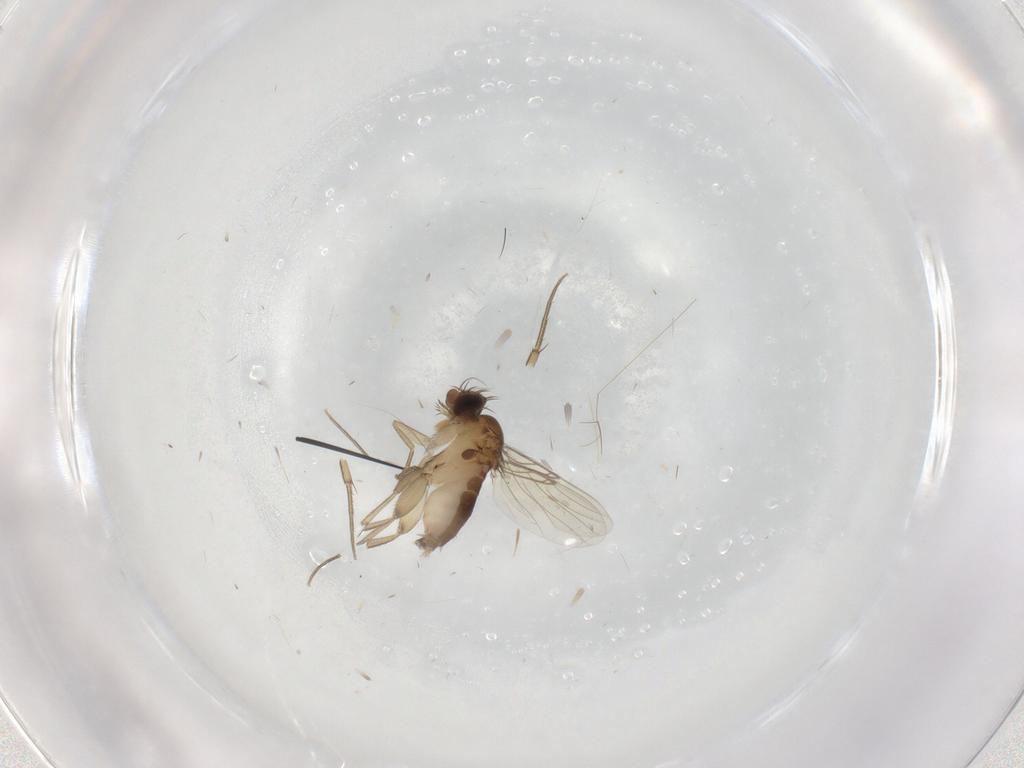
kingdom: Animalia
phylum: Arthropoda
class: Insecta
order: Diptera
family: Phoridae
